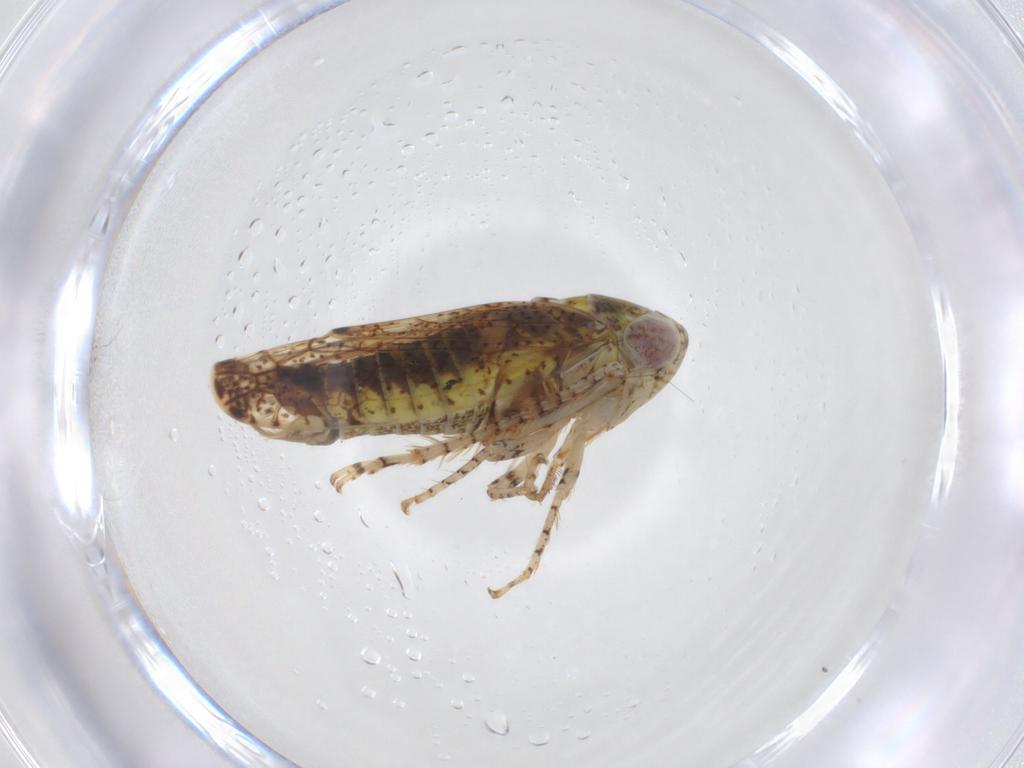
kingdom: Animalia
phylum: Arthropoda
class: Insecta
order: Hemiptera
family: Cicadellidae
